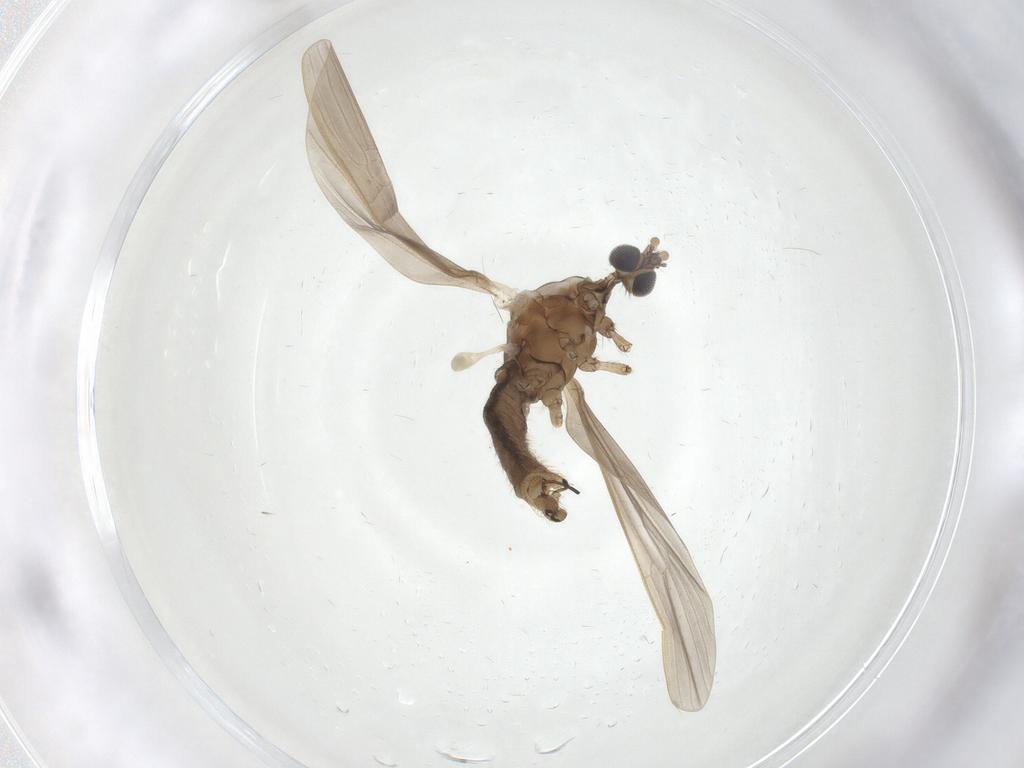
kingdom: Animalia
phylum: Arthropoda
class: Insecta
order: Diptera
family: Limoniidae
